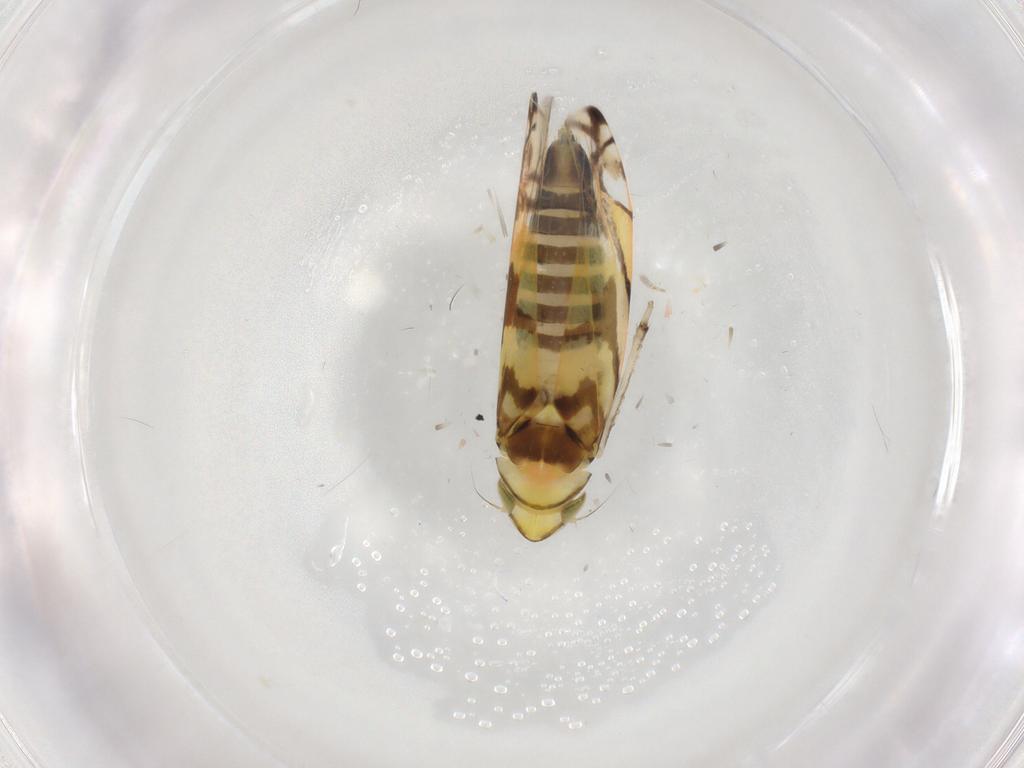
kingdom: Animalia
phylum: Arthropoda
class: Insecta
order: Hemiptera
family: Cicadellidae
